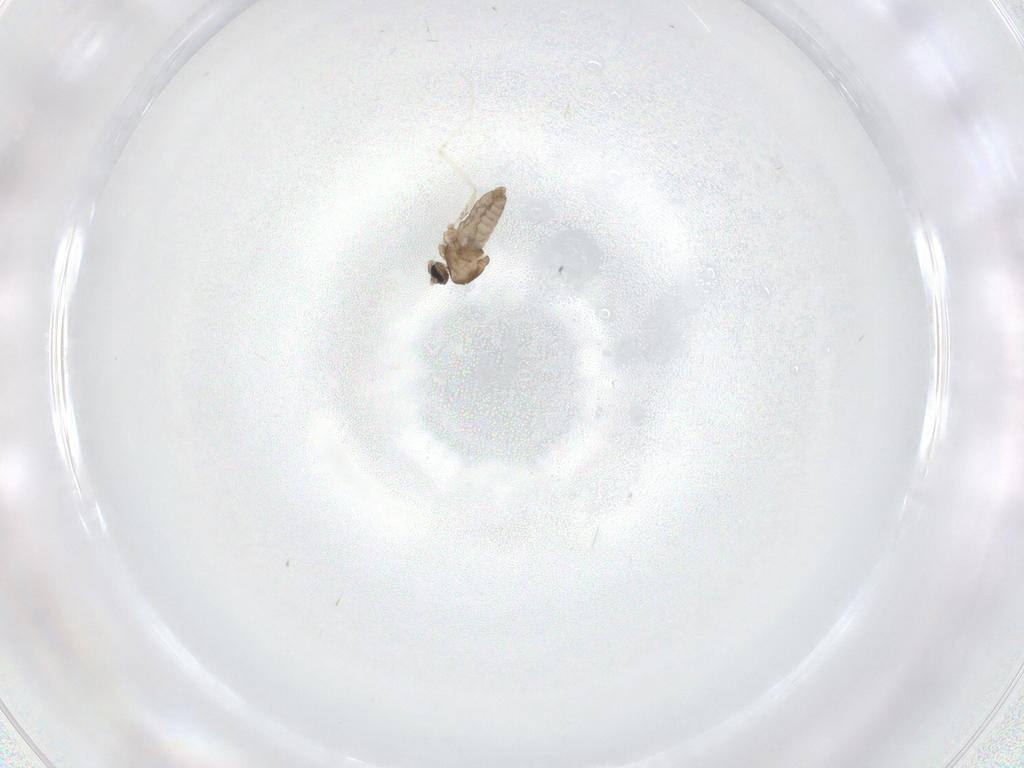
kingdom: Animalia
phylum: Arthropoda
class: Insecta
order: Diptera
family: Cecidomyiidae
